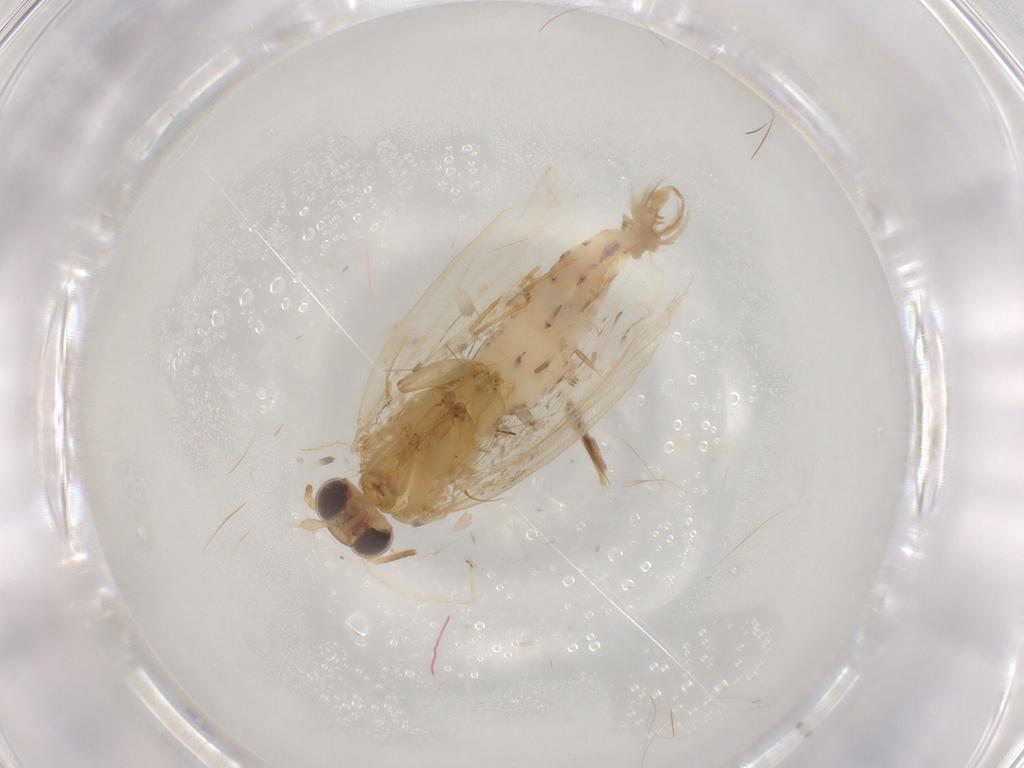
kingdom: Animalia
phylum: Arthropoda
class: Insecta
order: Lepidoptera
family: Tortricidae
